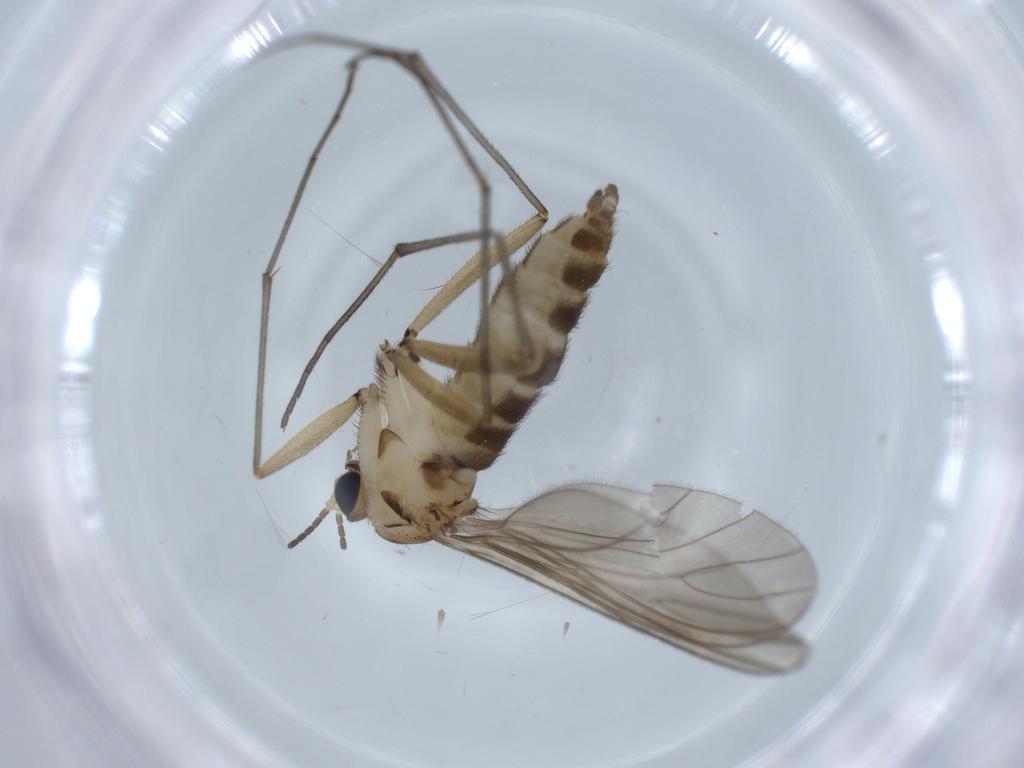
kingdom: Animalia
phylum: Arthropoda
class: Insecta
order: Diptera
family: Sciaridae
